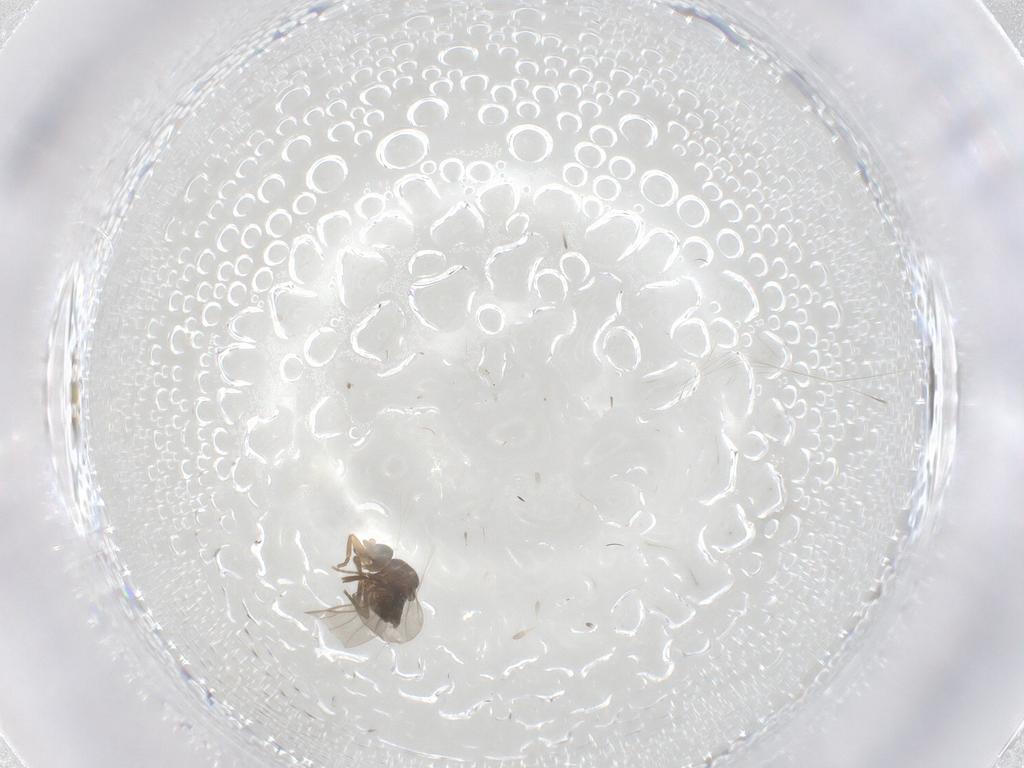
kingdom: Animalia
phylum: Arthropoda
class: Insecta
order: Diptera
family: Phoridae
